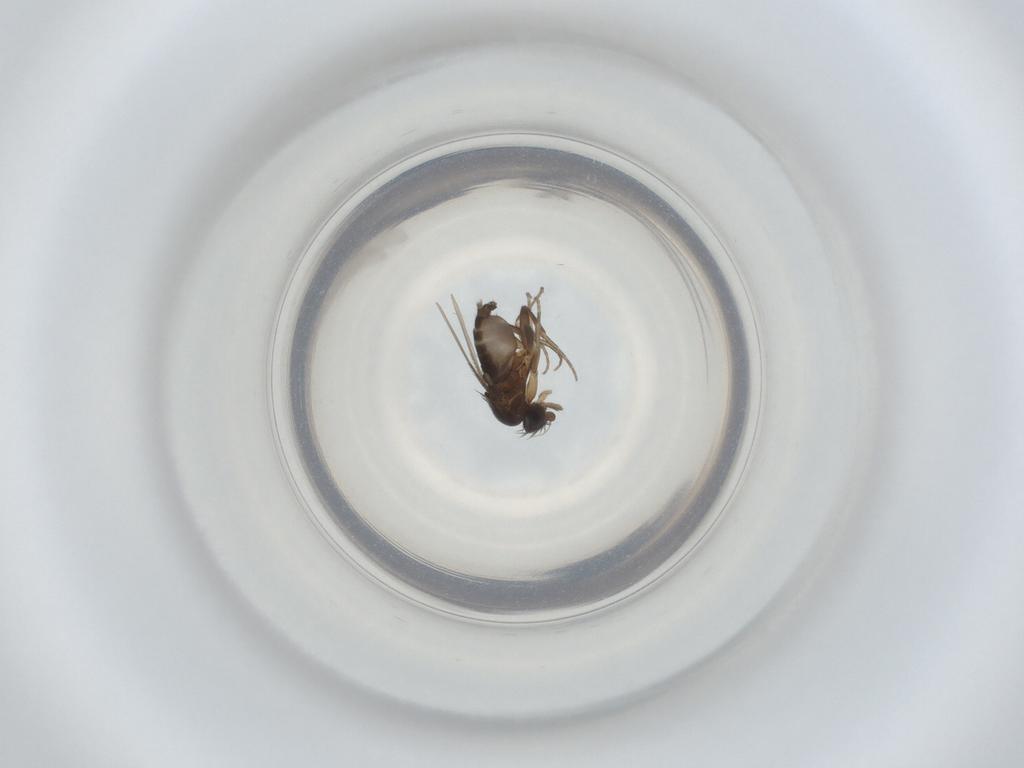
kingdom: Animalia
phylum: Arthropoda
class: Insecta
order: Diptera
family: Phoridae
